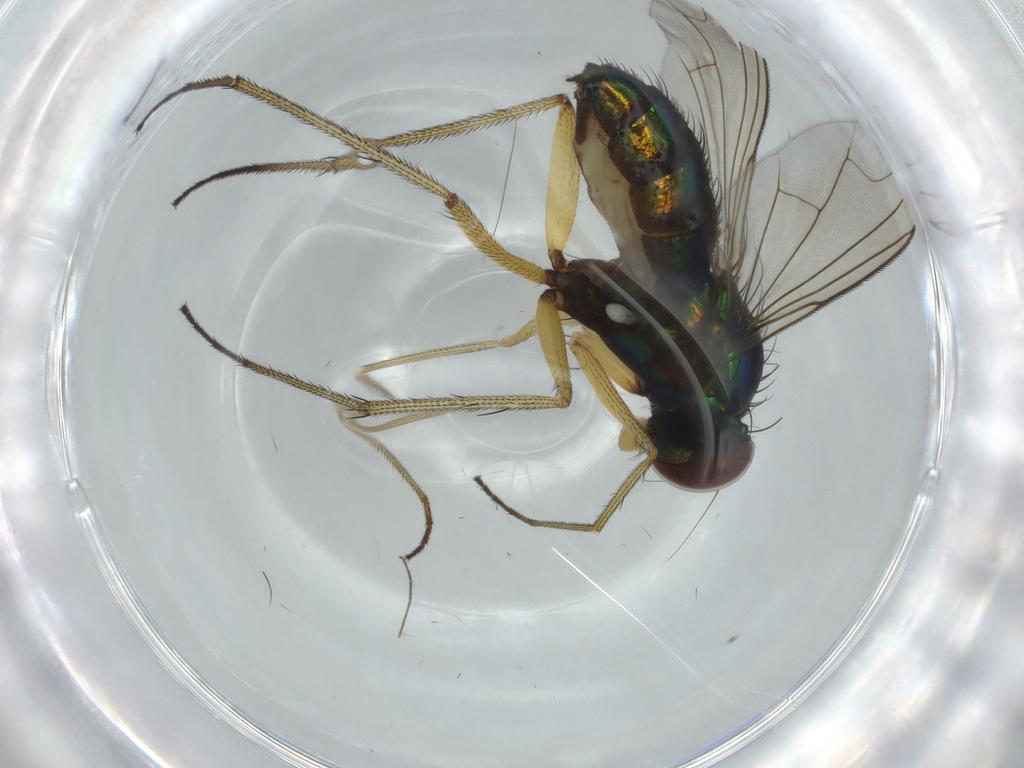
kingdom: Animalia
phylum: Arthropoda
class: Insecta
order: Diptera
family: Dolichopodidae
